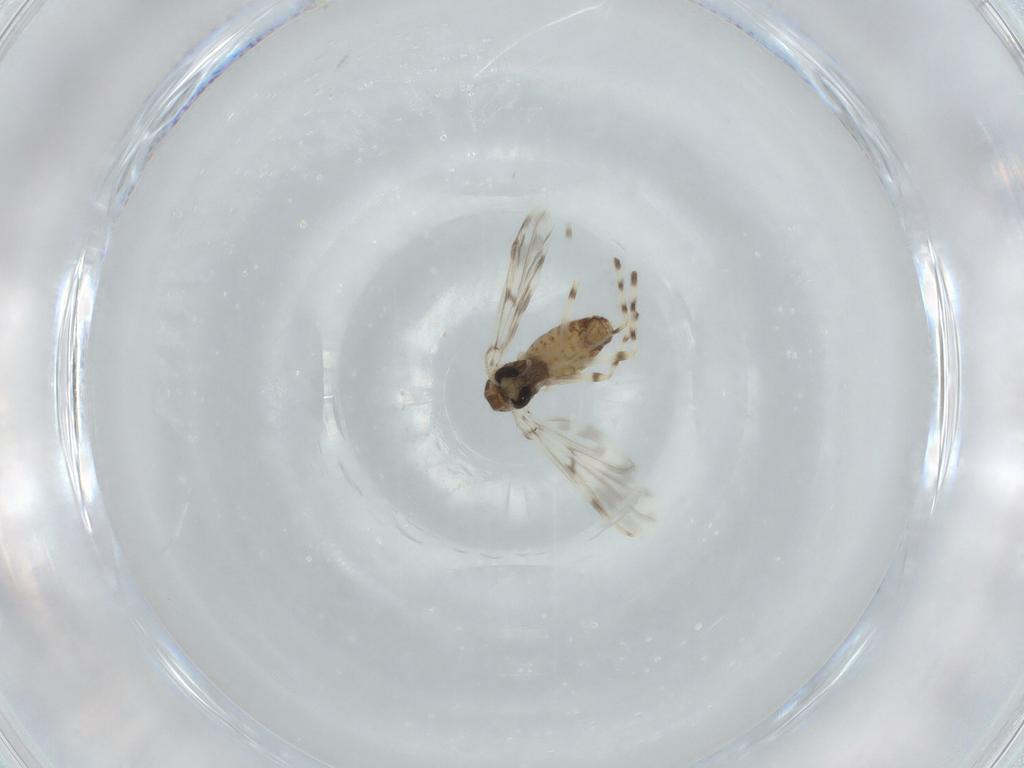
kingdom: Animalia
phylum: Arthropoda
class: Insecta
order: Diptera
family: Chironomidae
